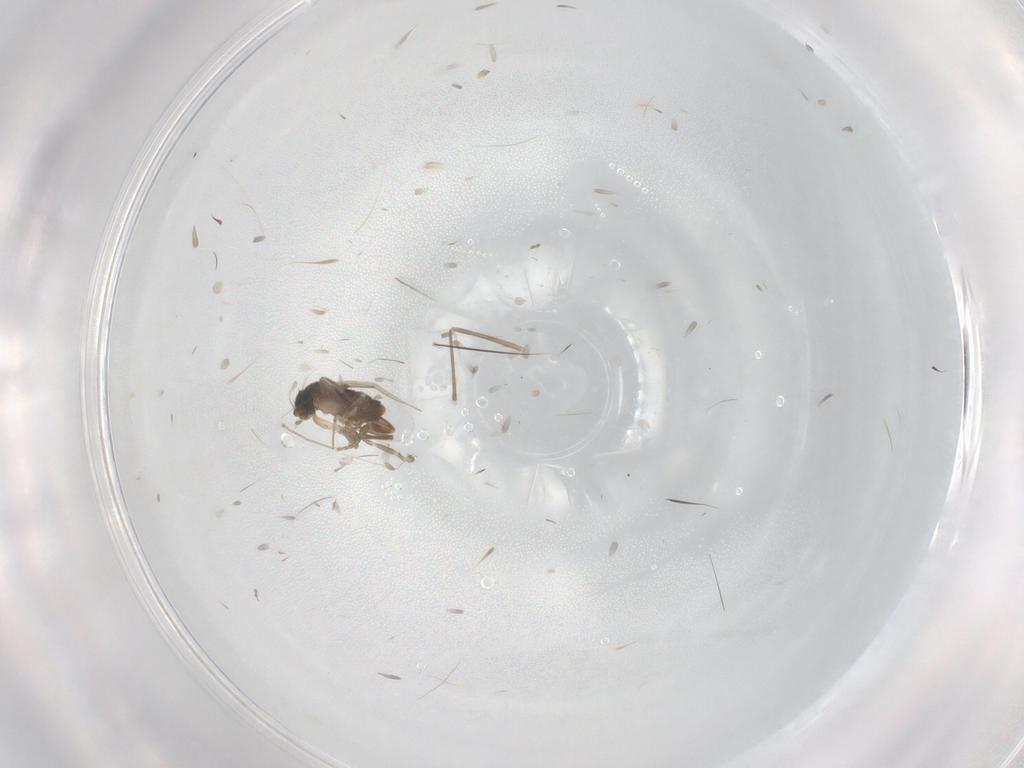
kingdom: Animalia
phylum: Arthropoda
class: Insecta
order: Diptera
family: Cecidomyiidae
